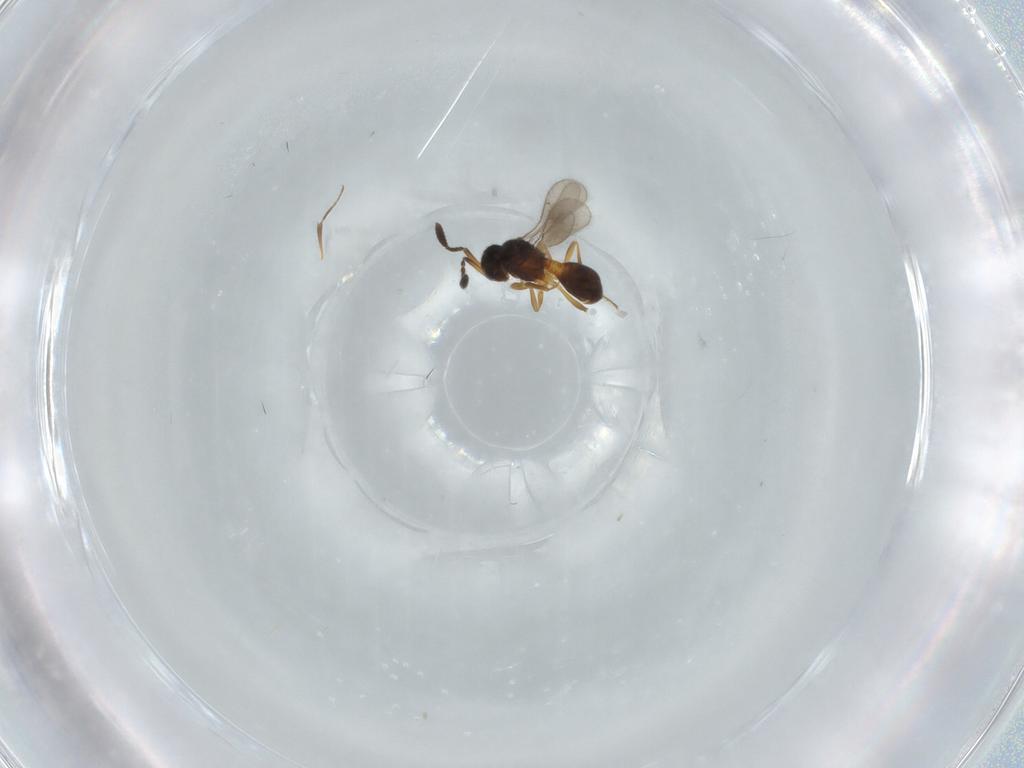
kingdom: Animalia
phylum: Arthropoda
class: Insecta
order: Hymenoptera
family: Scelionidae
